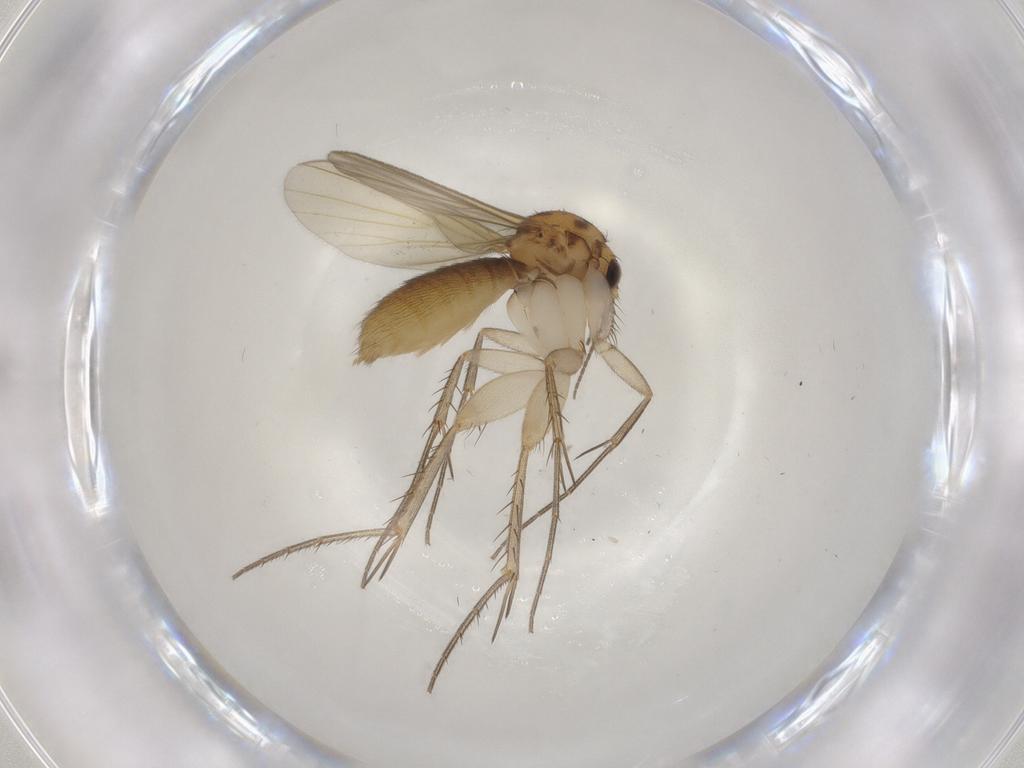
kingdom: Animalia
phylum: Arthropoda
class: Insecta
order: Diptera
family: Mycetophilidae
